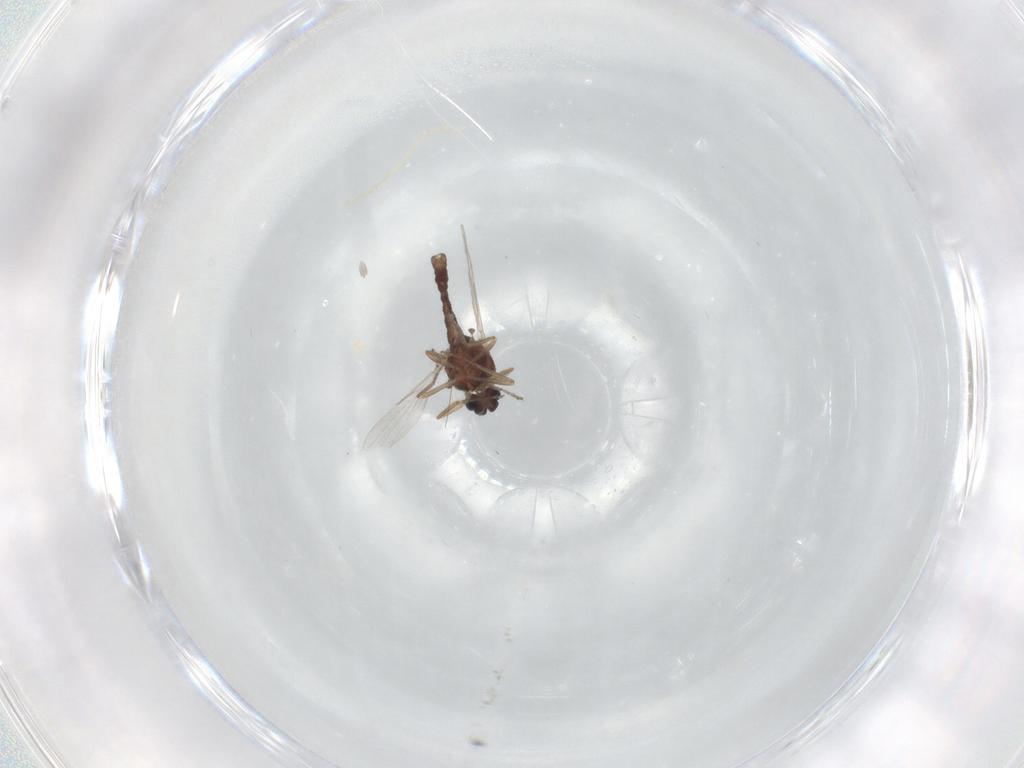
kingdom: Animalia
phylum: Arthropoda
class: Insecta
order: Diptera
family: Ceratopogonidae
